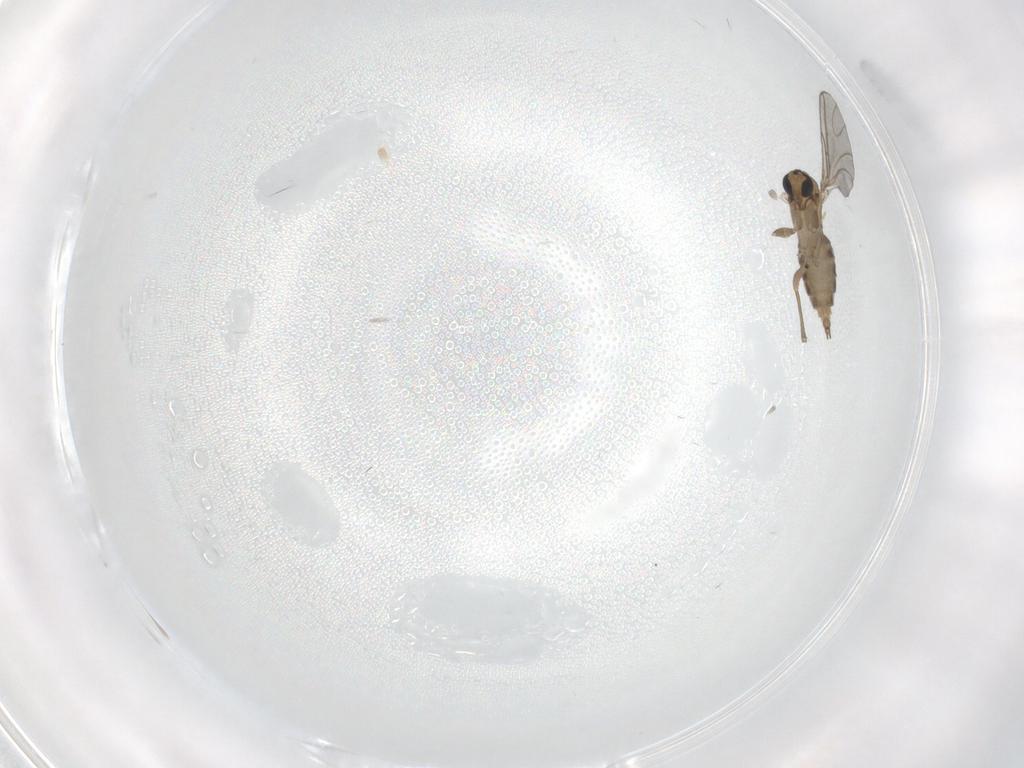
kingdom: Animalia
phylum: Arthropoda
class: Insecta
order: Diptera
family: Sciaridae
